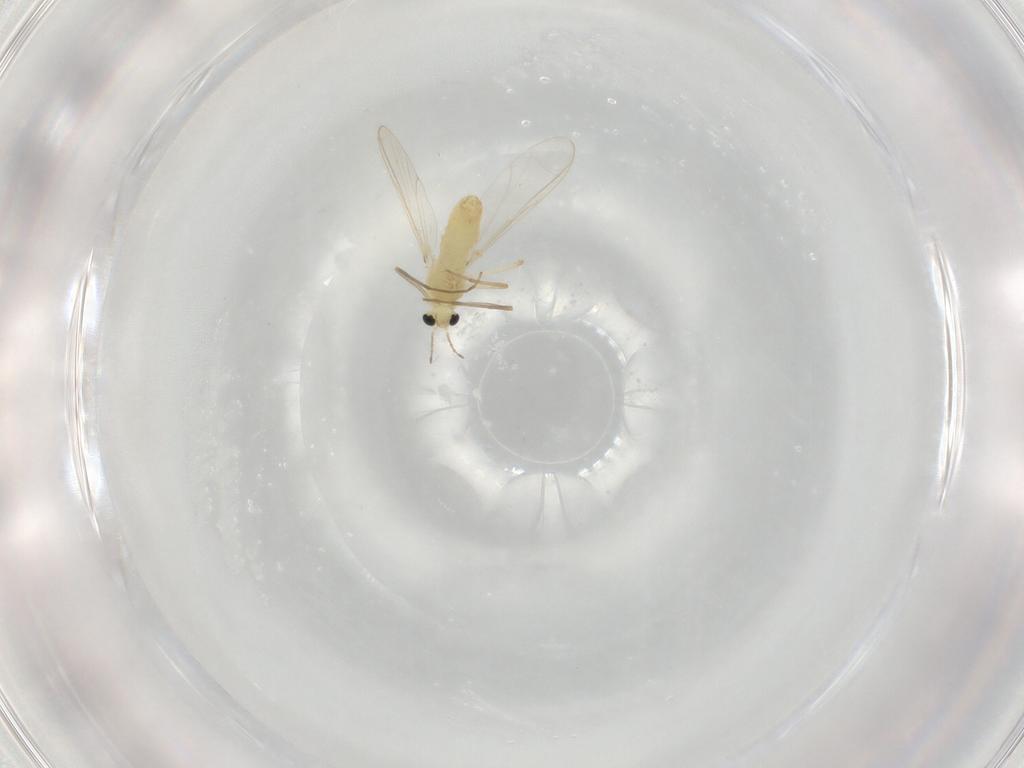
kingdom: Animalia
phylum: Arthropoda
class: Insecta
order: Diptera
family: Chironomidae
